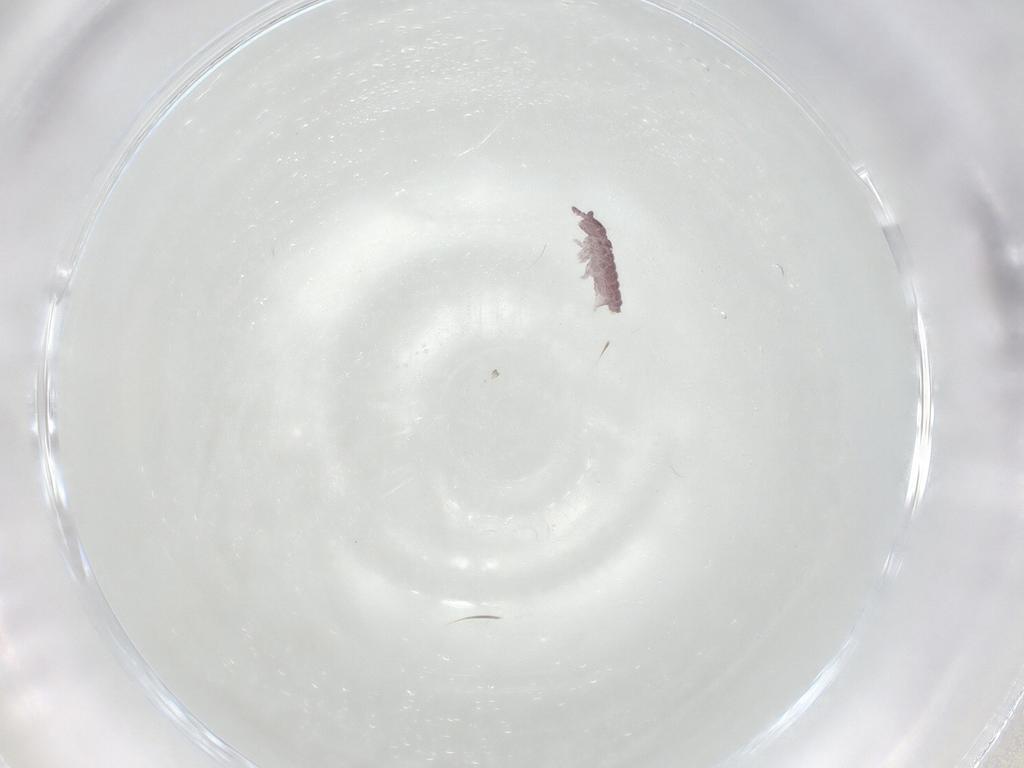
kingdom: Animalia
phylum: Arthropoda
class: Collembola
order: Poduromorpha
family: Hypogastruridae
